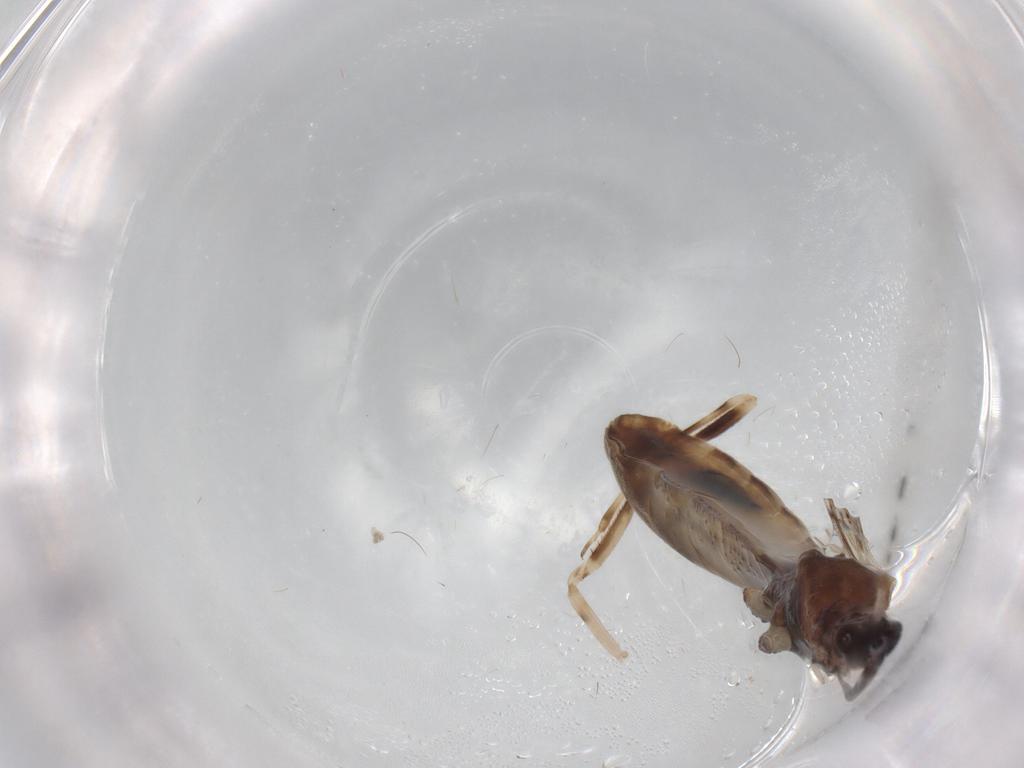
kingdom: Animalia
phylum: Arthropoda
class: Insecta
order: Hemiptera
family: Reduviidae
